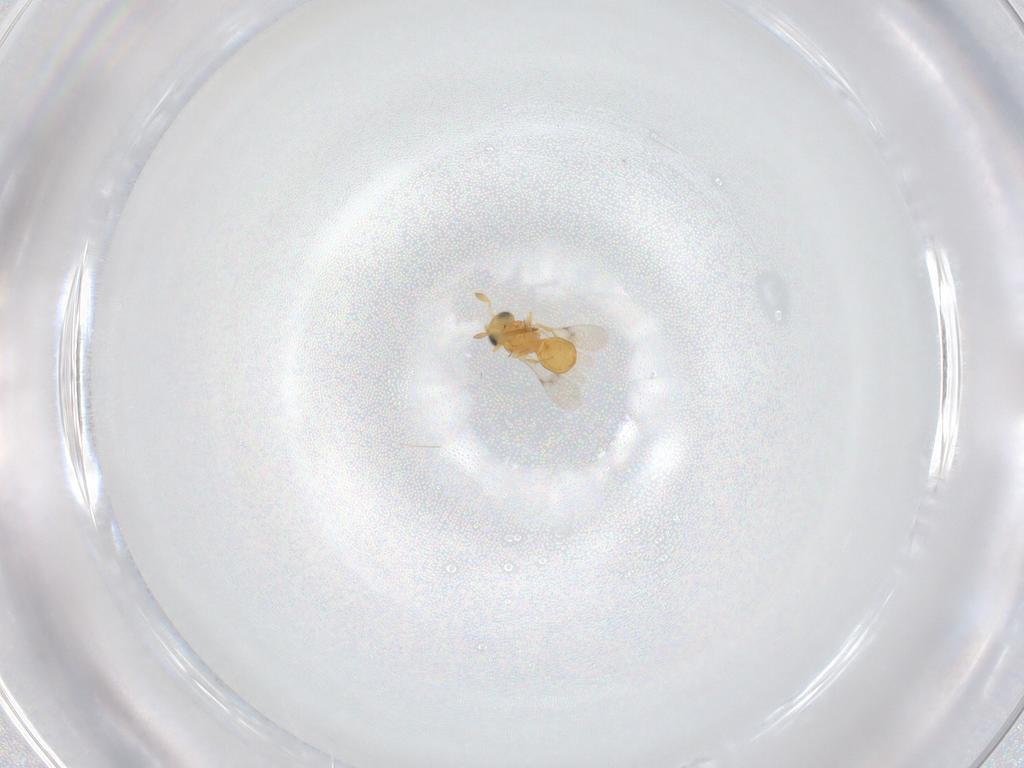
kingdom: Animalia
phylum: Arthropoda
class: Insecta
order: Hymenoptera
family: Scelionidae
